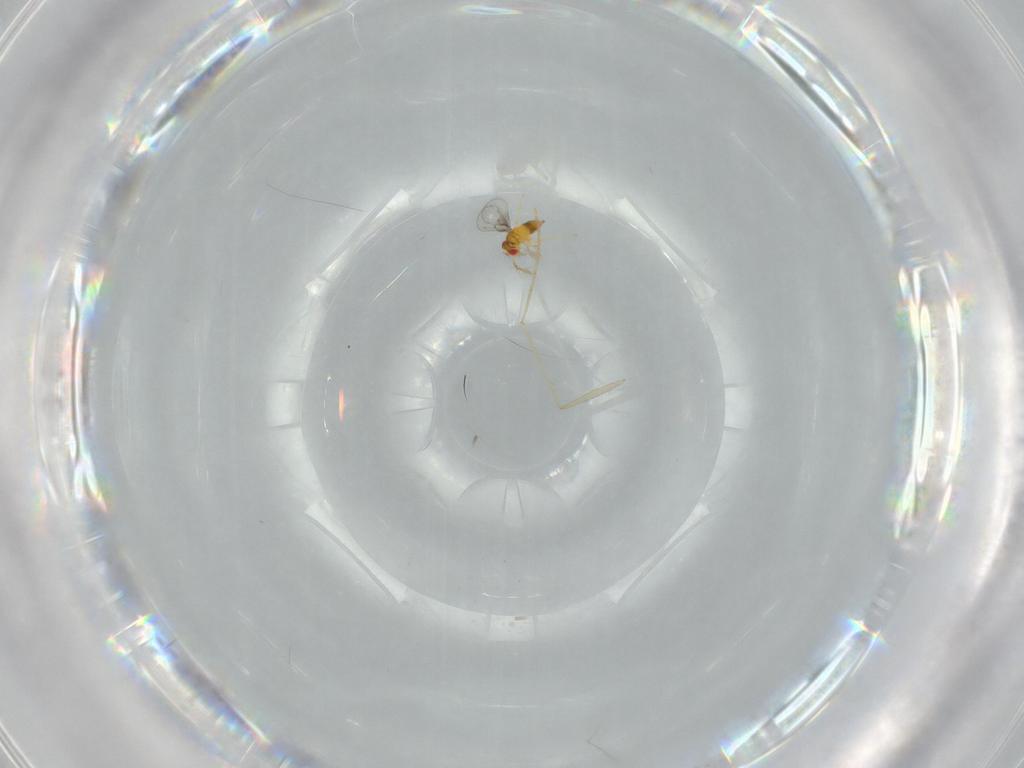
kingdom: Animalia
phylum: Arthropoda
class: Insecta
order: Hymenoptera
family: Trichogrammatidae
